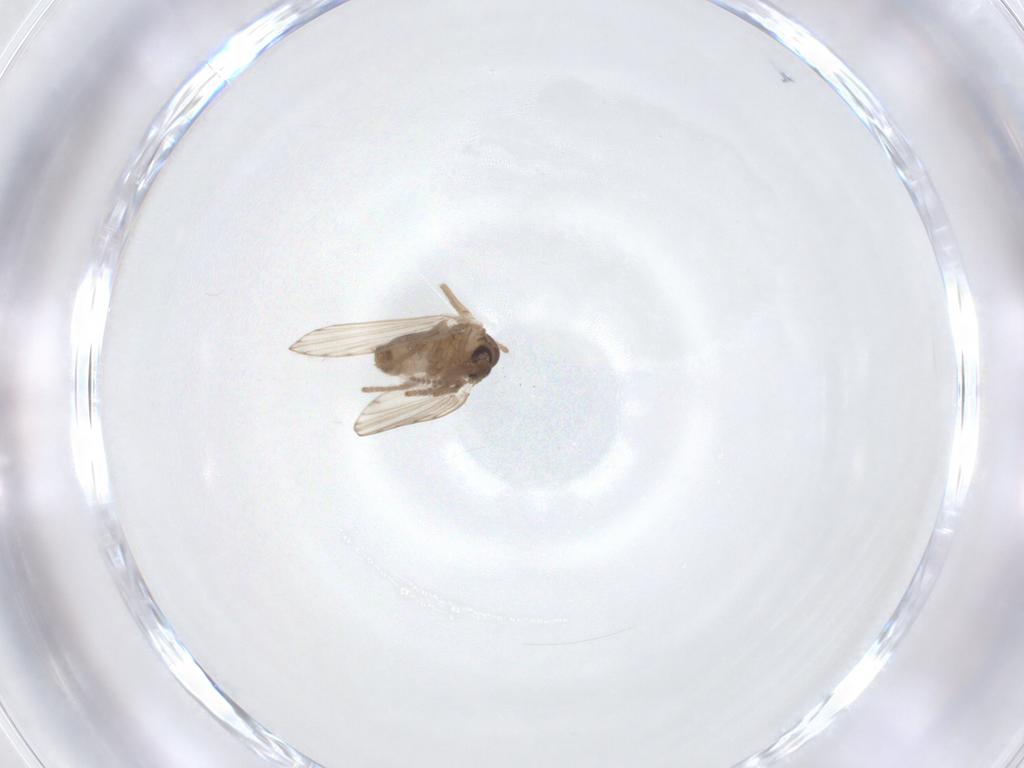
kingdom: Animalia
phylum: Arthropoda
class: Insecta
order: Diptera
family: Psychodidae
